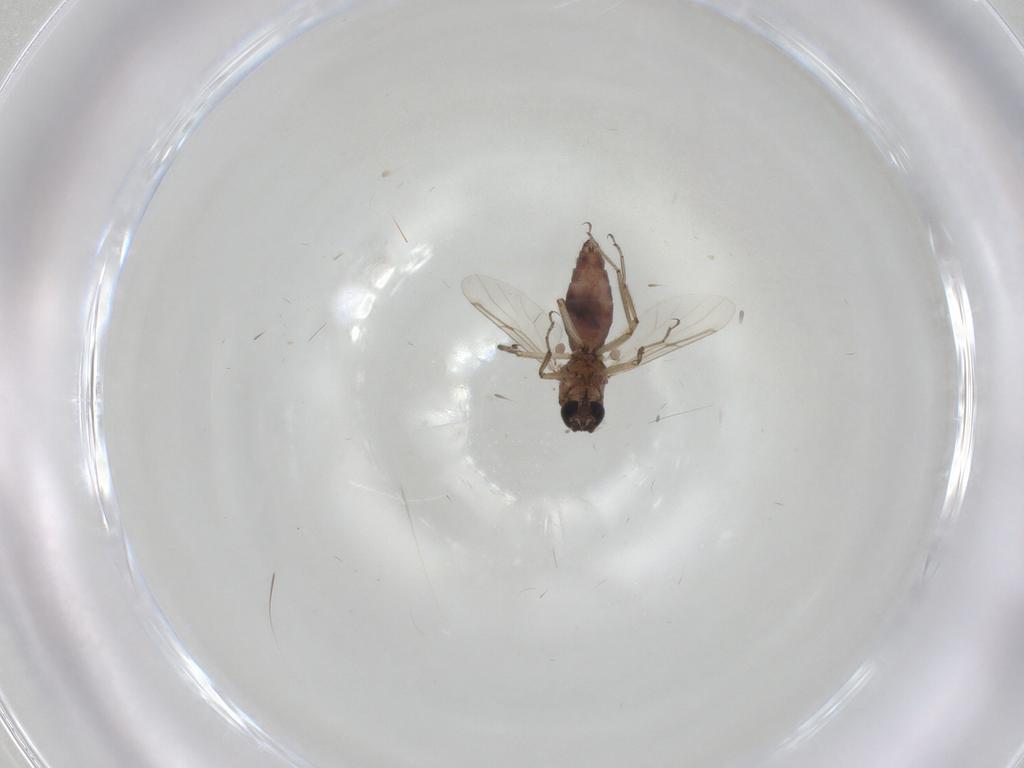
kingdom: Animalia
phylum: Arthropoda
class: Insecta
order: Diptera
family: Ceratopogonidae
